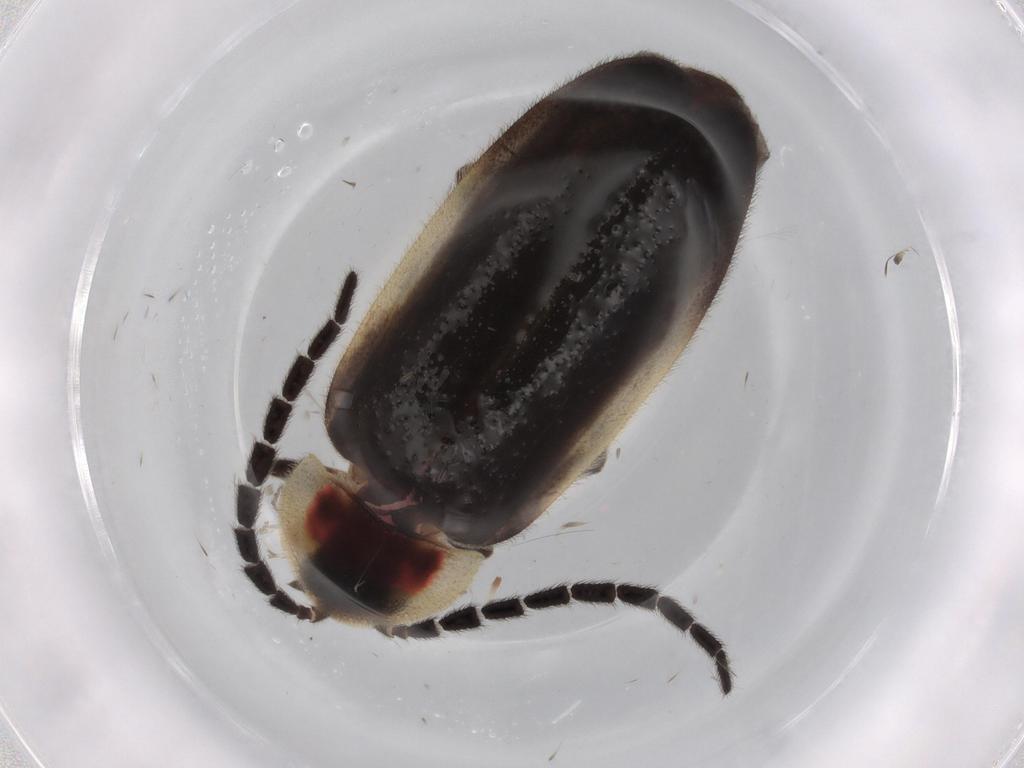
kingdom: Animalia
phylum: Arthropoda
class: Insecta
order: Coleoptera
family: Lampyridae
